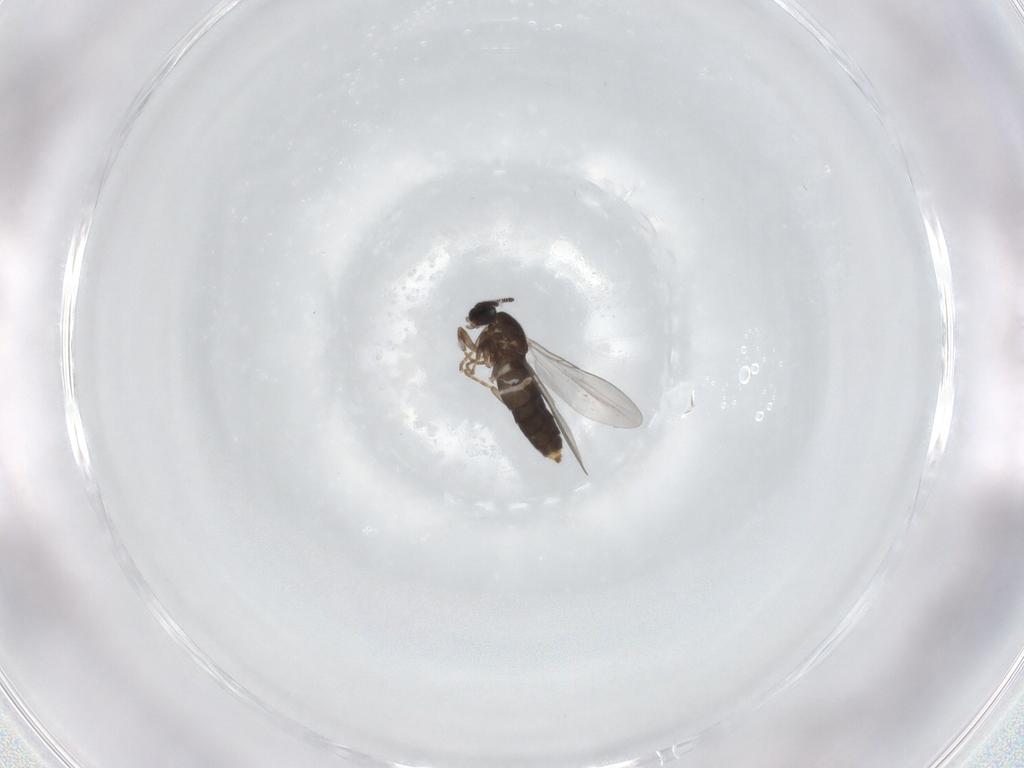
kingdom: Animalia
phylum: Arthropoda
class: Insecta
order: Diptera
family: Scatopsidae
